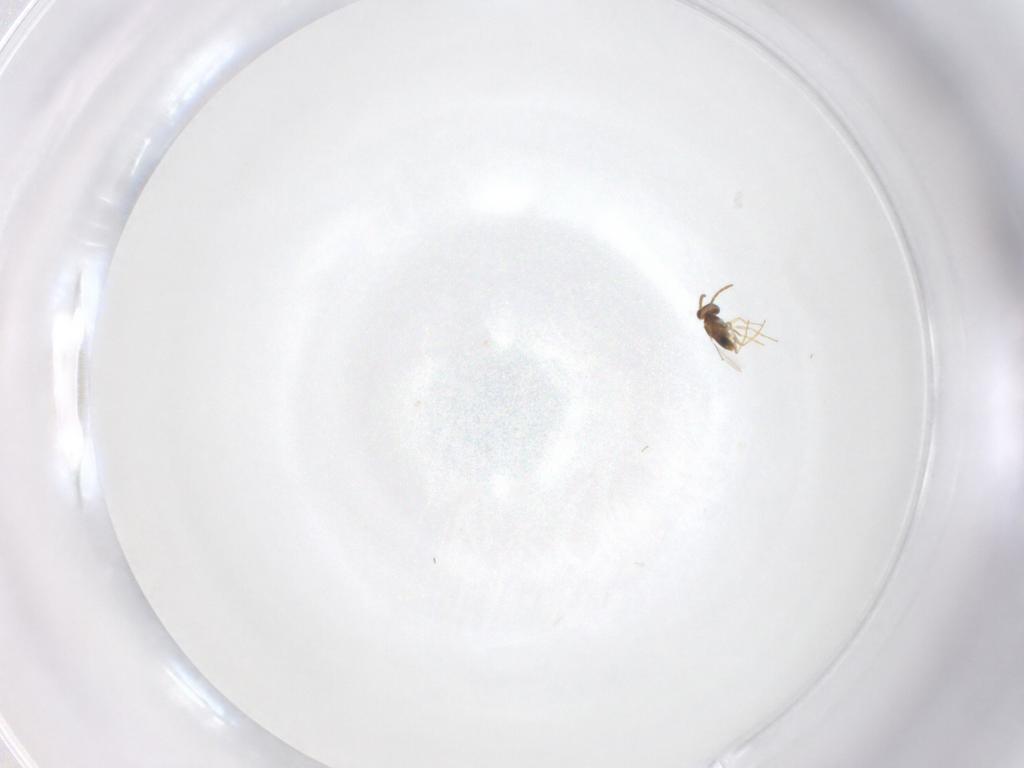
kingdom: Animalia
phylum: Arthropoda
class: Insecta
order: Hymenoptera
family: Scelionidae
